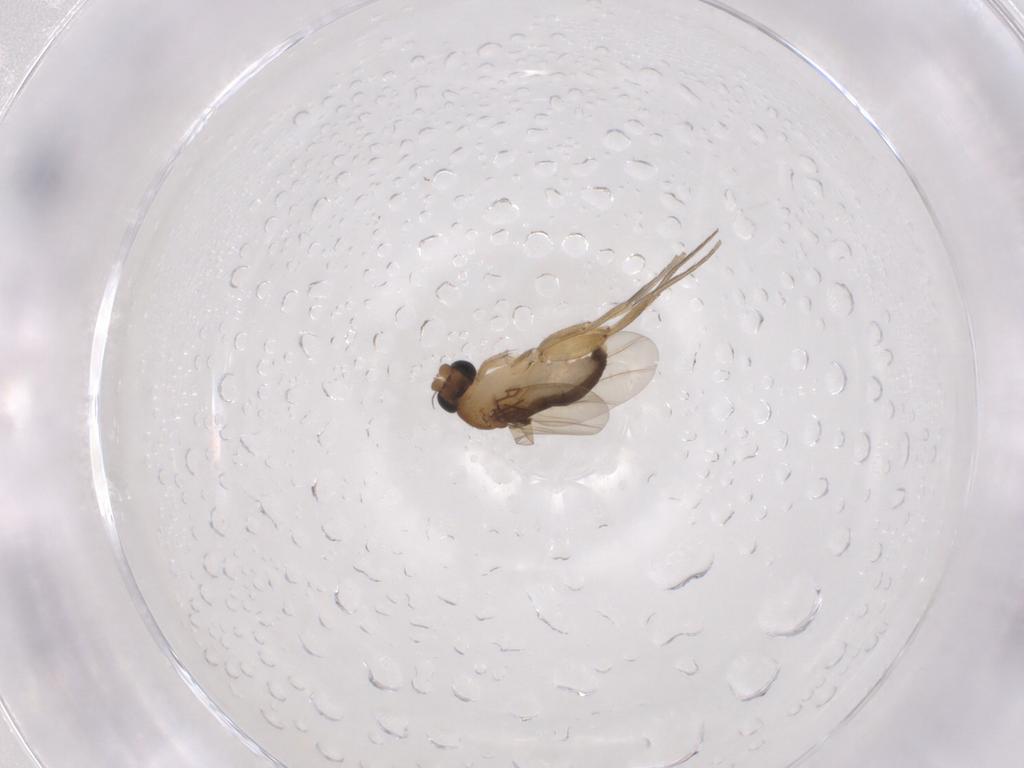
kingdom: Animalia
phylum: Arthropoda
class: Insecta
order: Diptera
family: Phoridae
